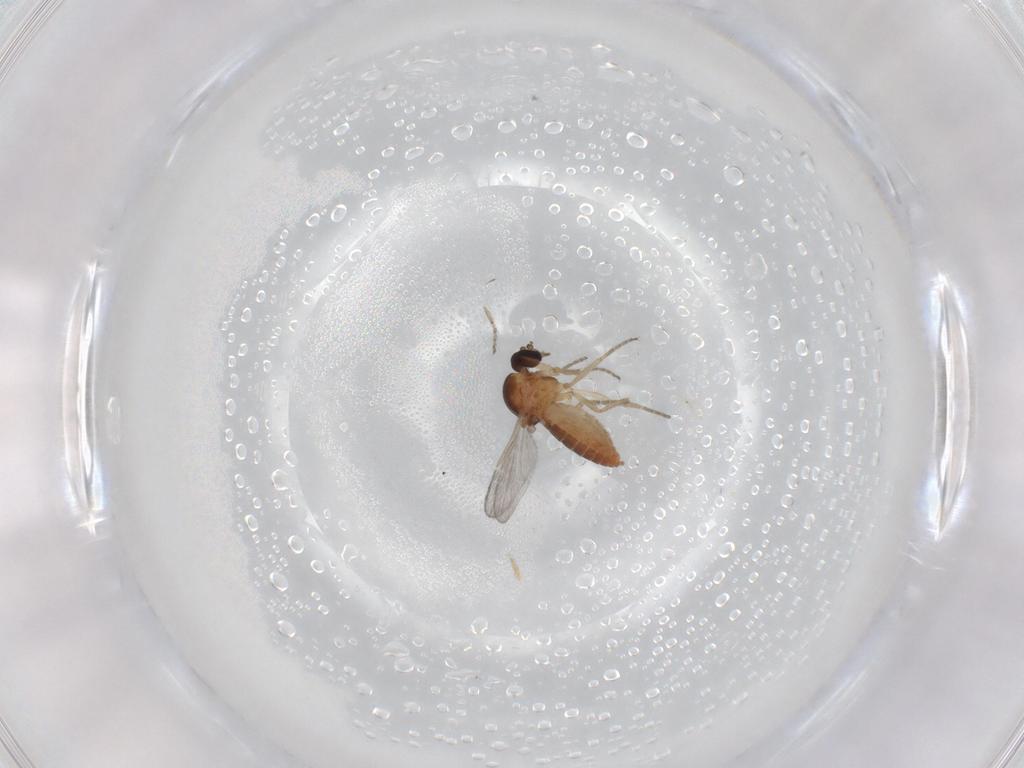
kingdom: Animalia
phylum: Arthropoda
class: Insecta
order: Diptera
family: Ceratopogonidae
